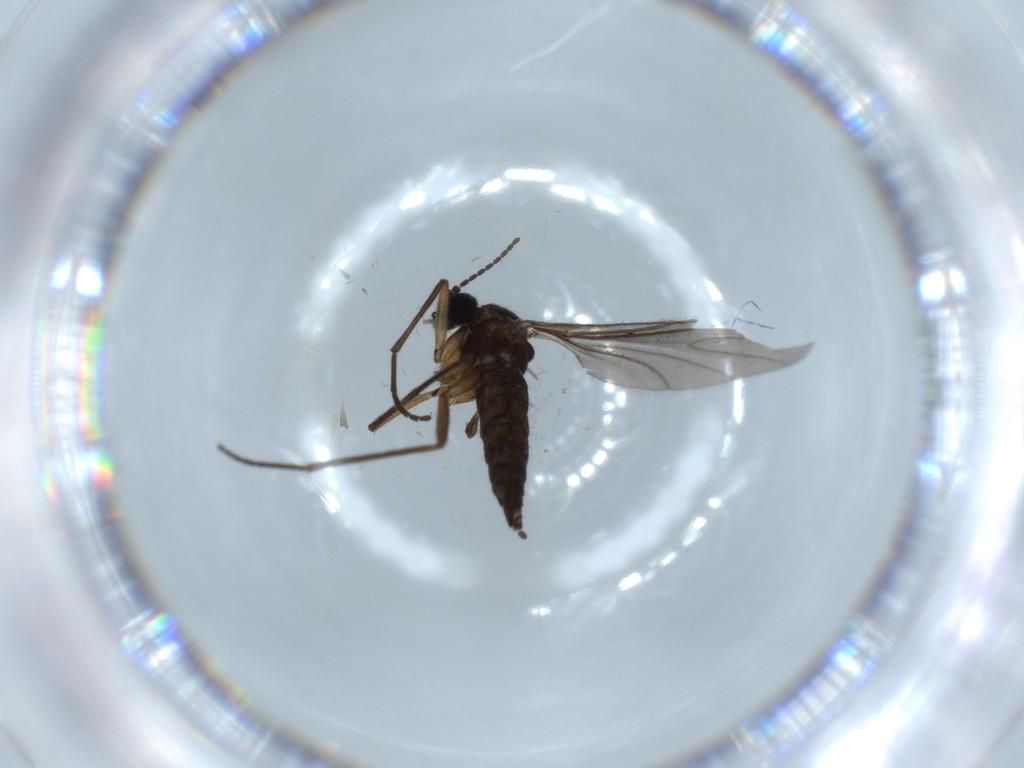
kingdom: Animalia
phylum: Arthropoda
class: Insecta
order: Diptera
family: Sciaridae
